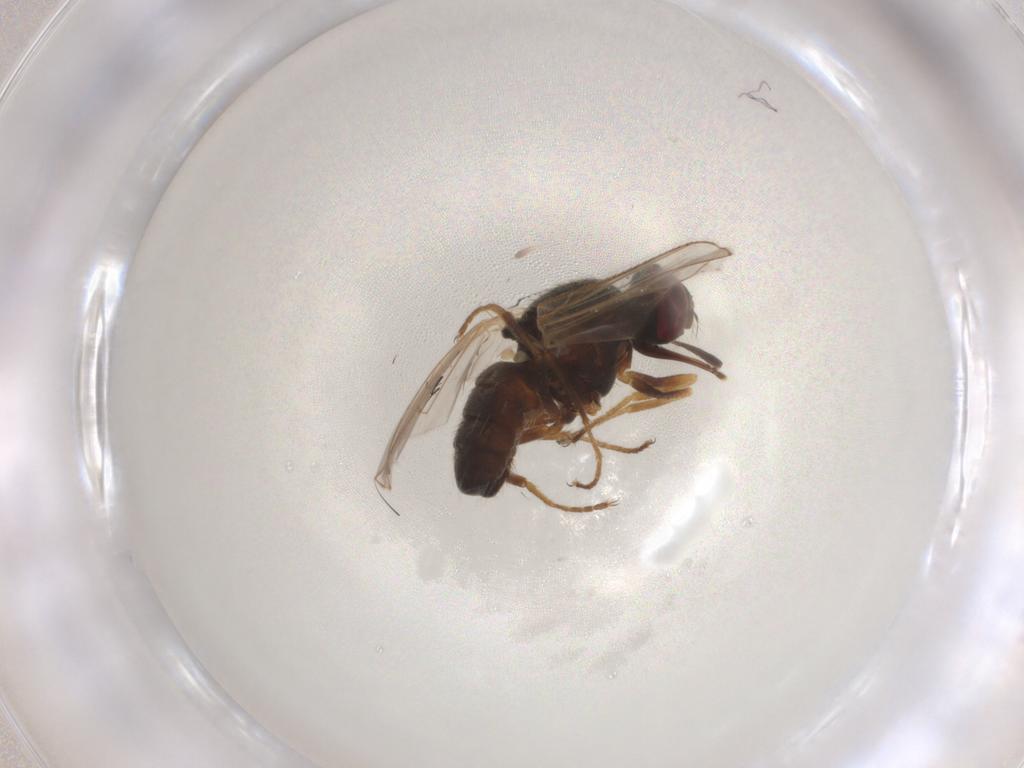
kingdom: Animalia
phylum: Arthropoda
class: Insecta
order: Diptera
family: Muscidae
